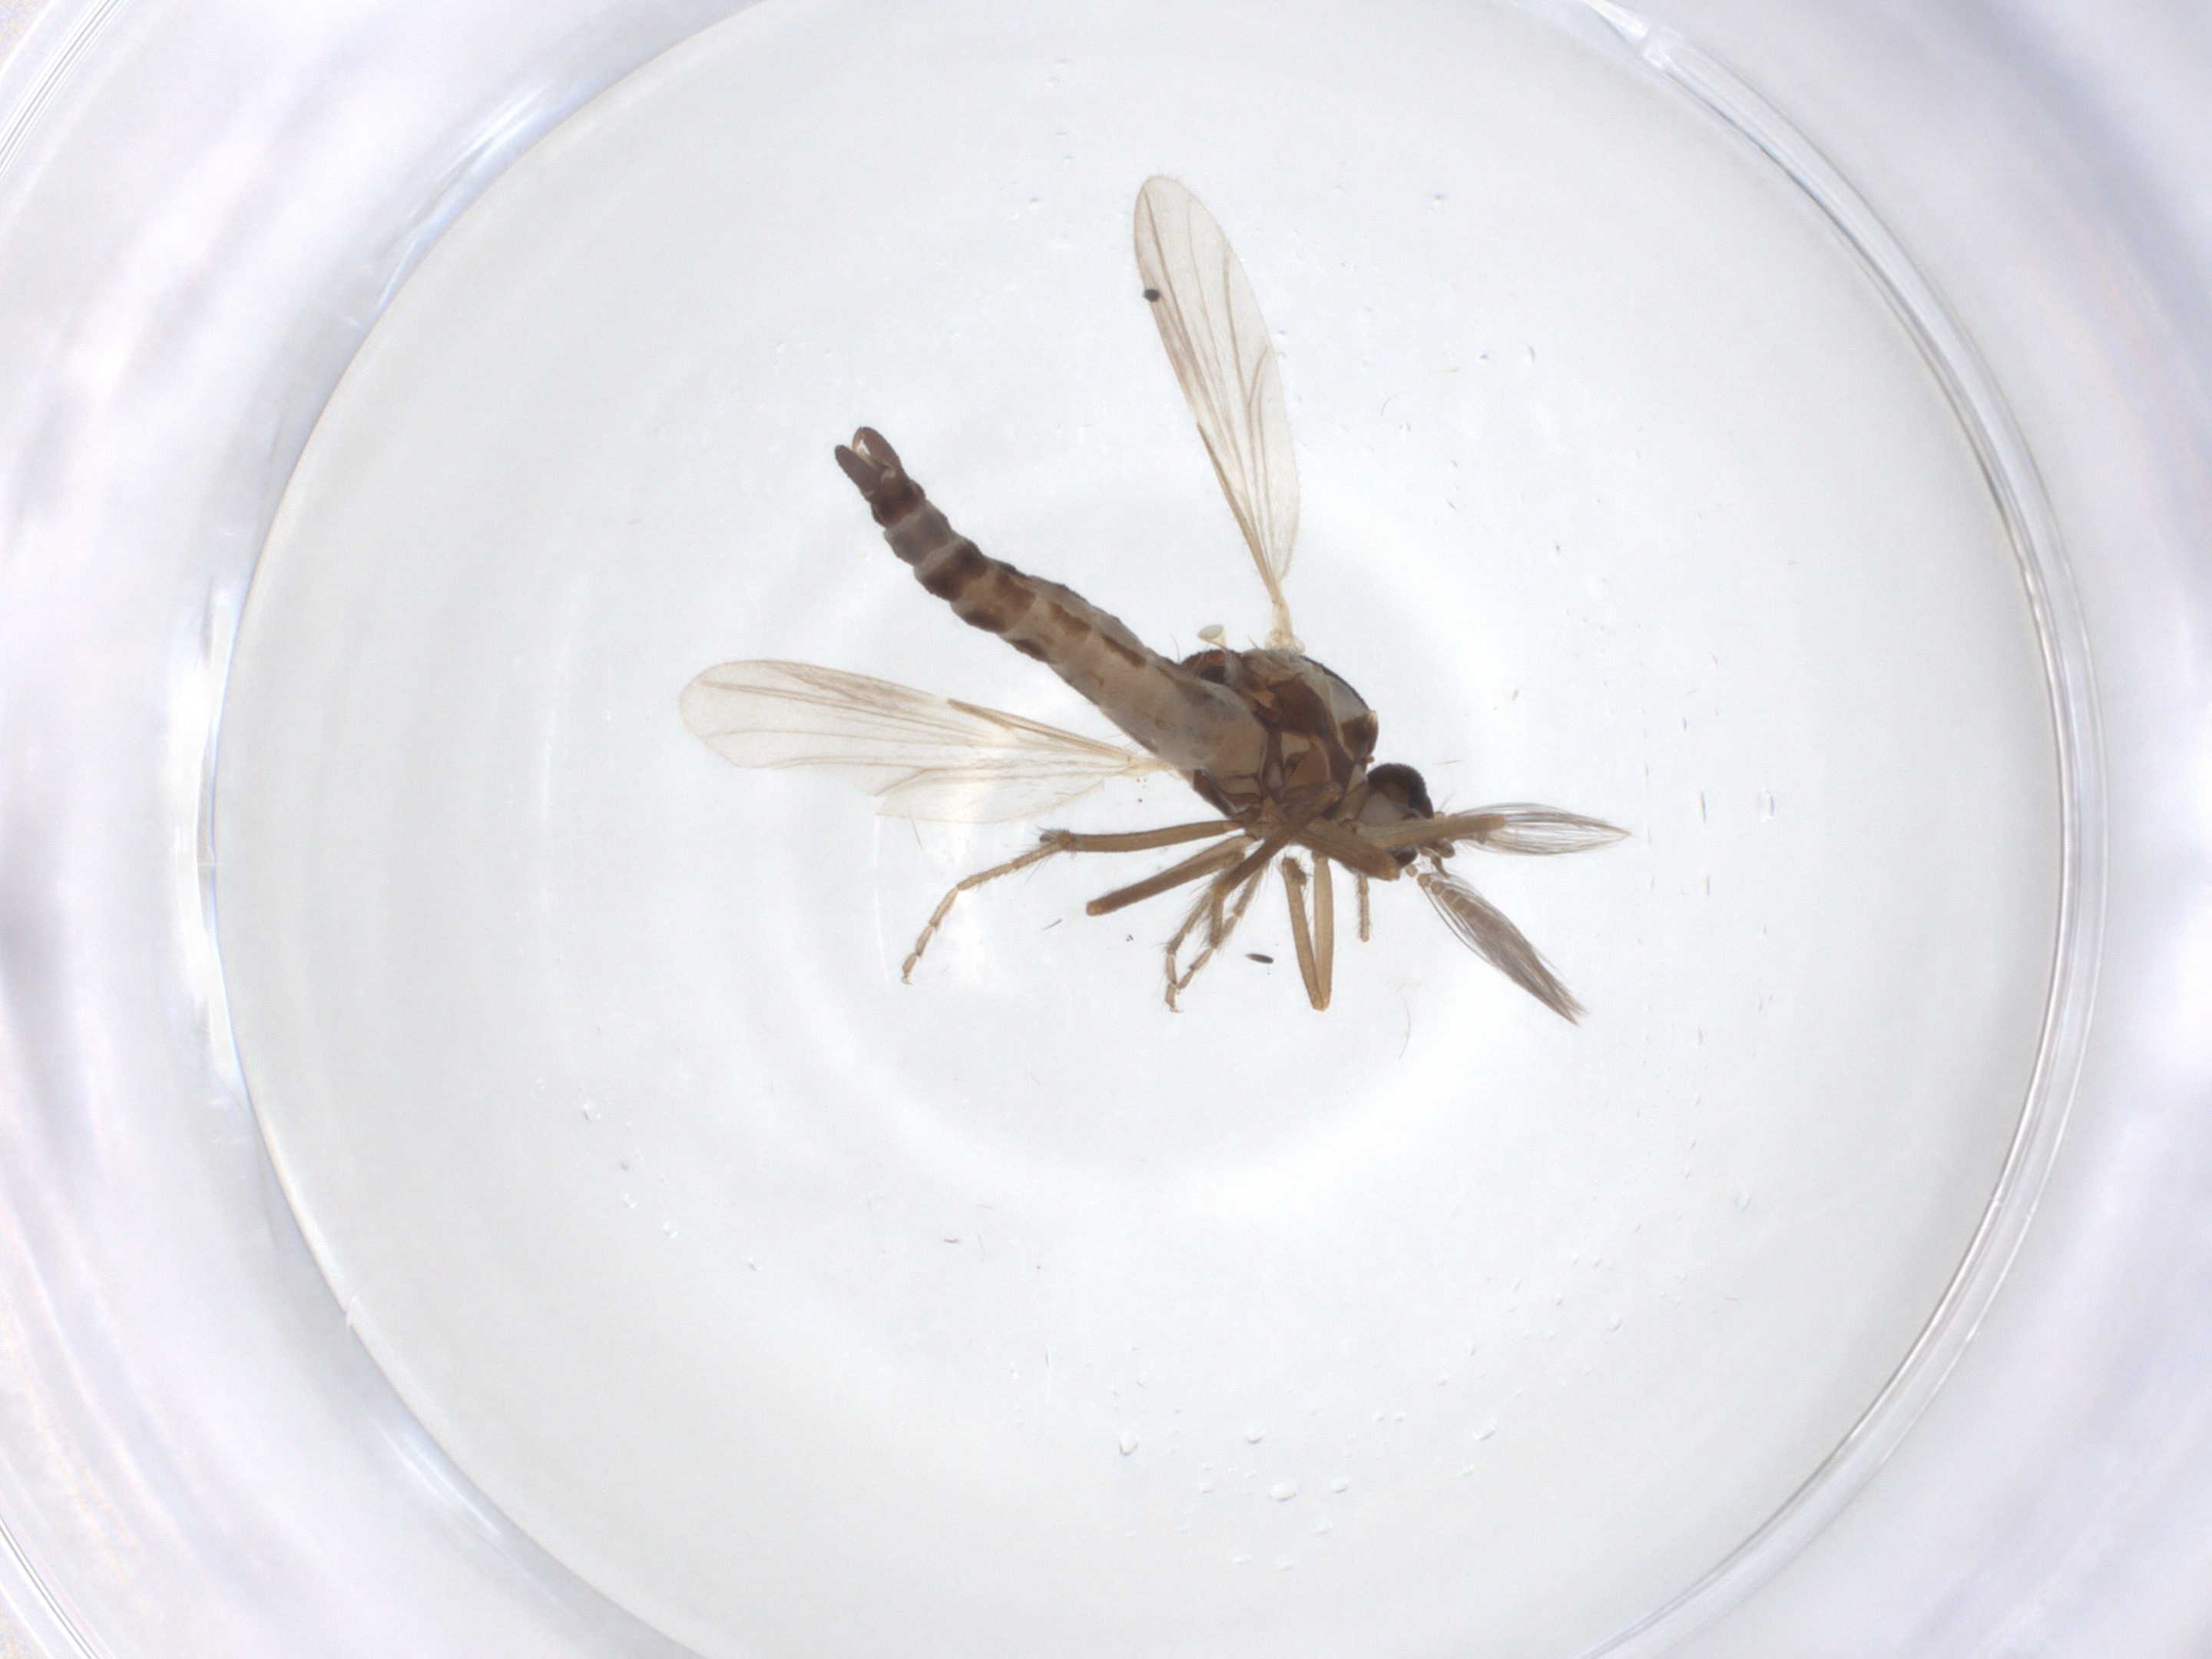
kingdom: Animalia
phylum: Arthropoda
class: Insecta
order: Diptera
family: Ceratopogonidae
